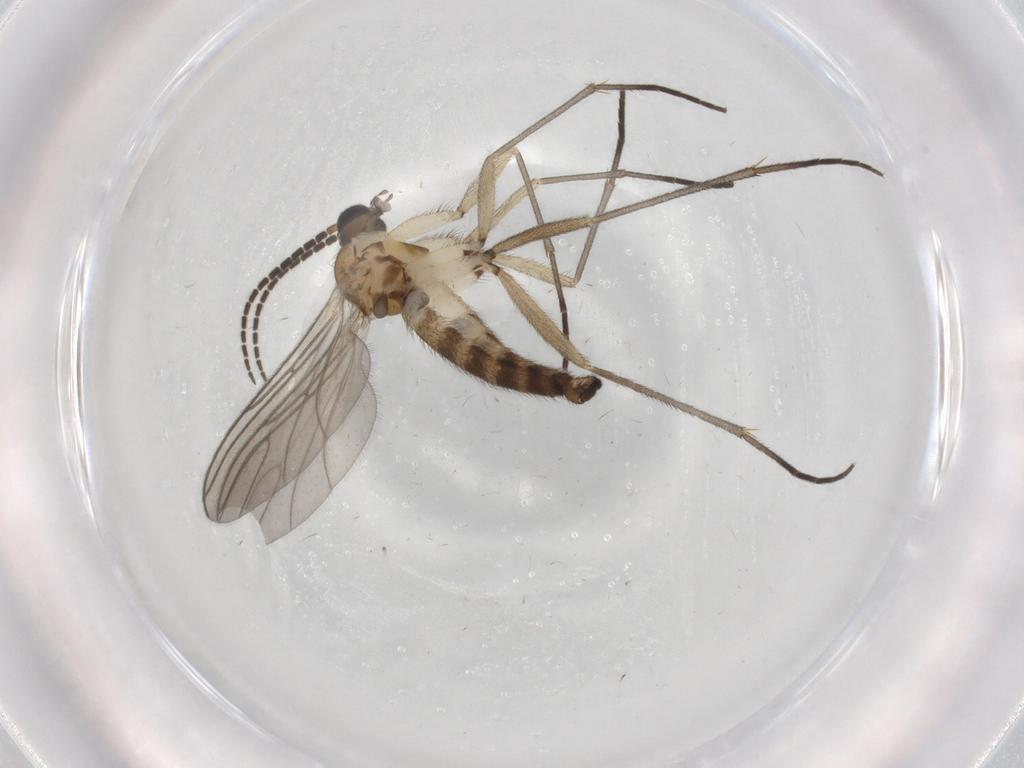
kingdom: Animalia
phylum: Arthropoda
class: Insecta
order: Diptera
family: Sciaridae
